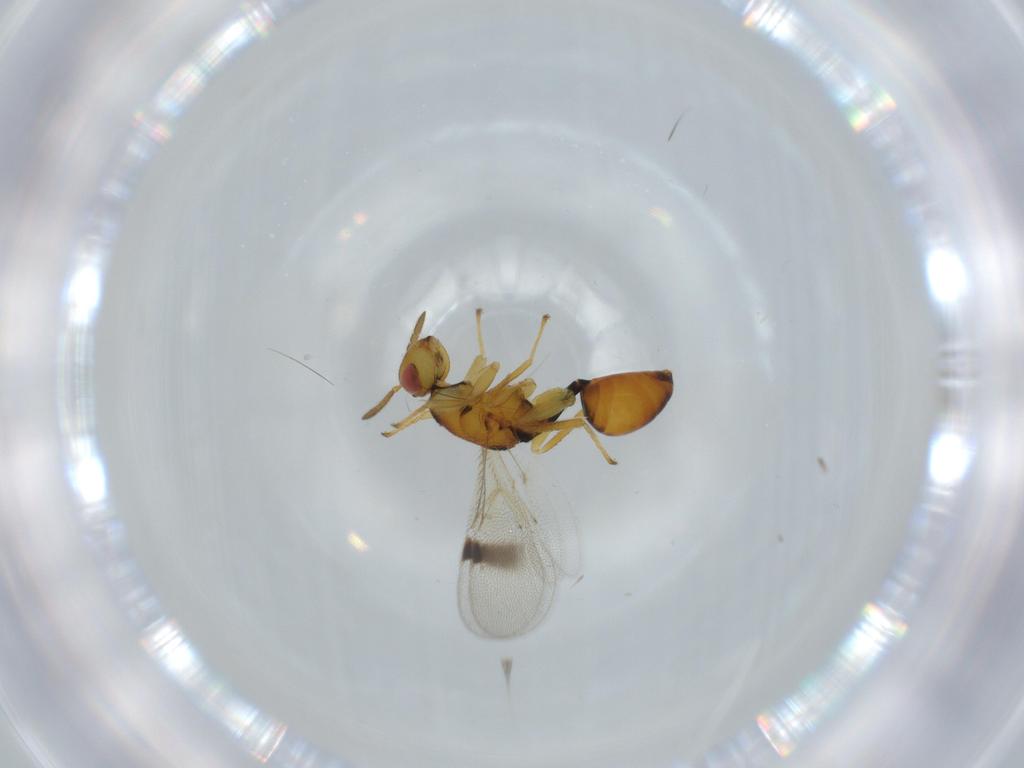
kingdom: Animalia
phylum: Arthropoda
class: Insecta
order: Hymenoptera
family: Eurytomidae
